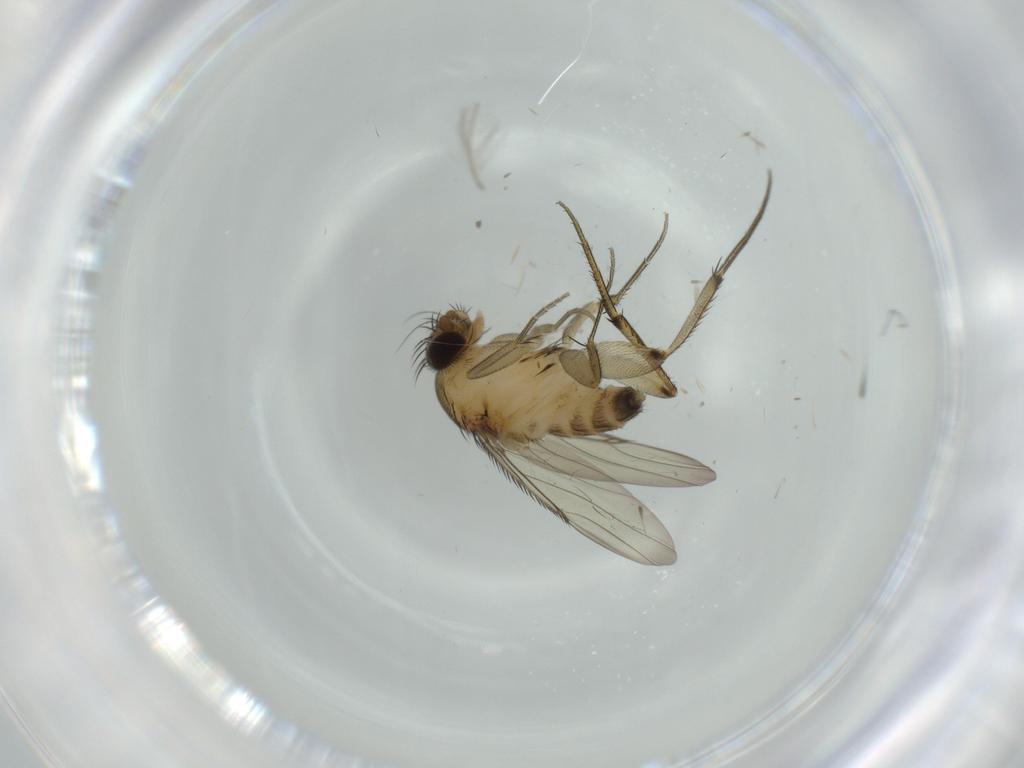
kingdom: Animalia
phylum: Arthropoda
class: Insecta
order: Diptera
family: Phoridae
